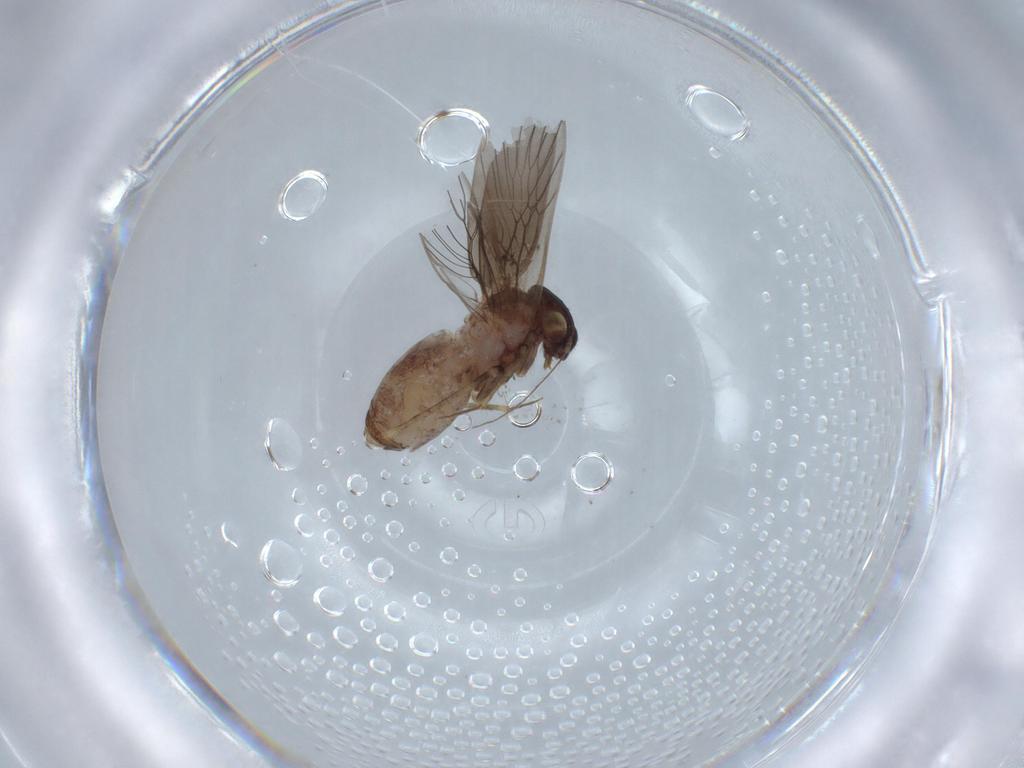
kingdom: Animalia
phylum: Arthropoda
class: Insecta
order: Psocodea
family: Lepidopsocidae
